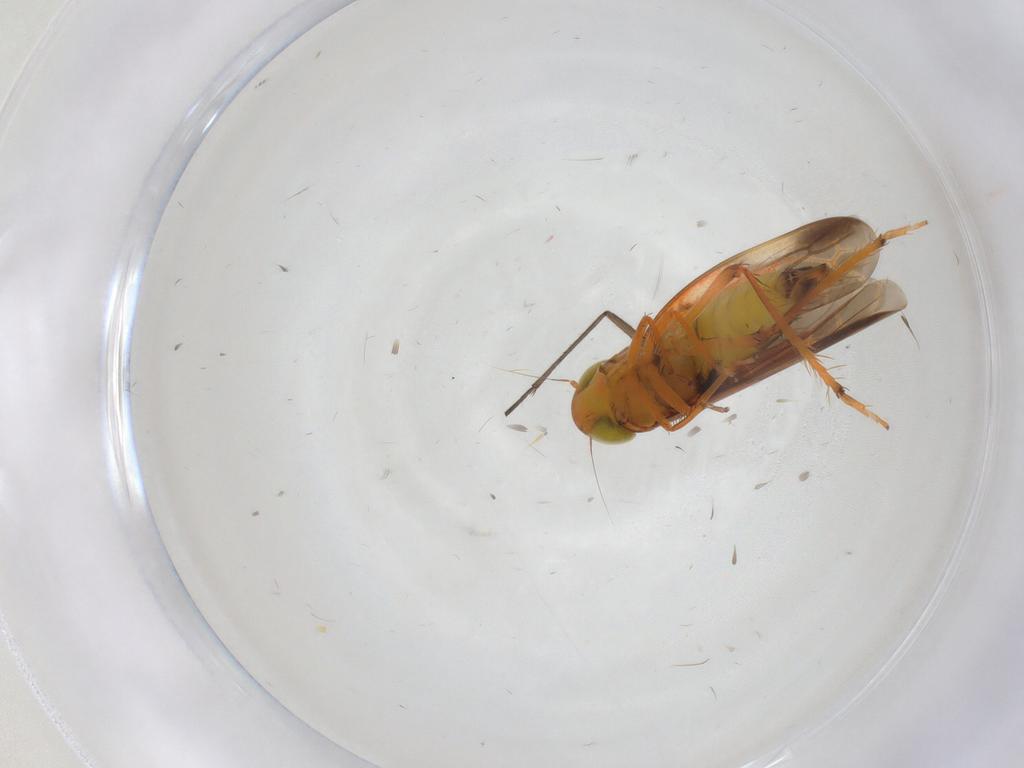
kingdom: Animalia
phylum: Arthropoda
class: Insecta
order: Hemiptera
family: Cicadellidae
